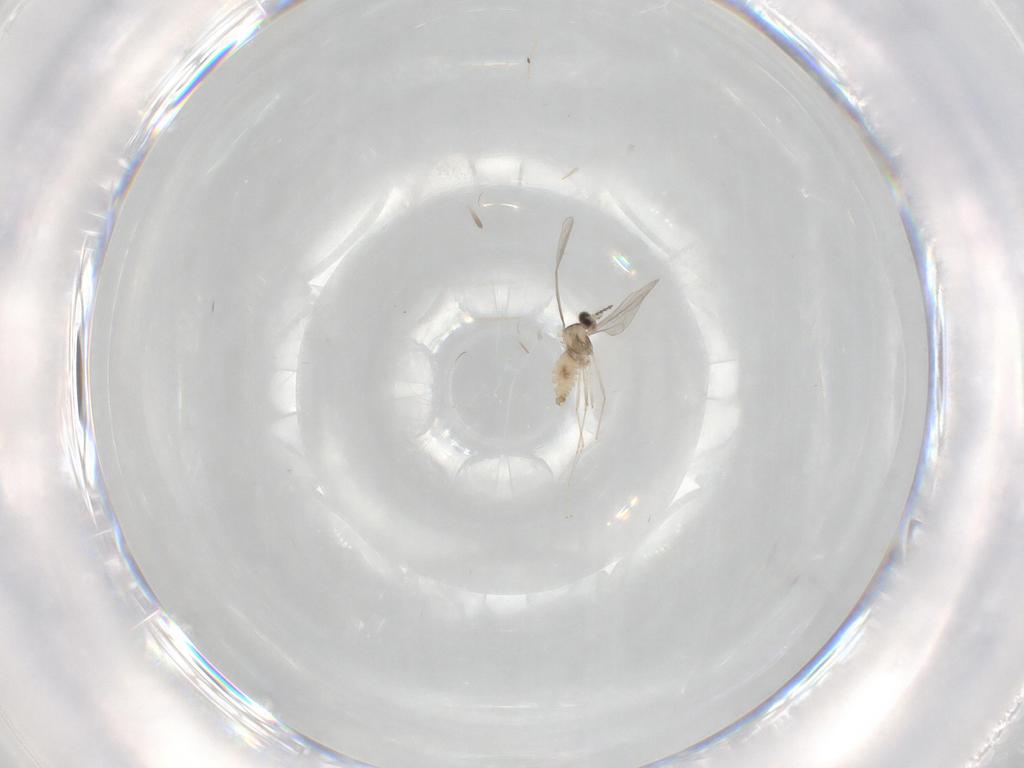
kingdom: Animalia
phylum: Arthropoda
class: Insecta
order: Diptera
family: Cecidomyiidae
